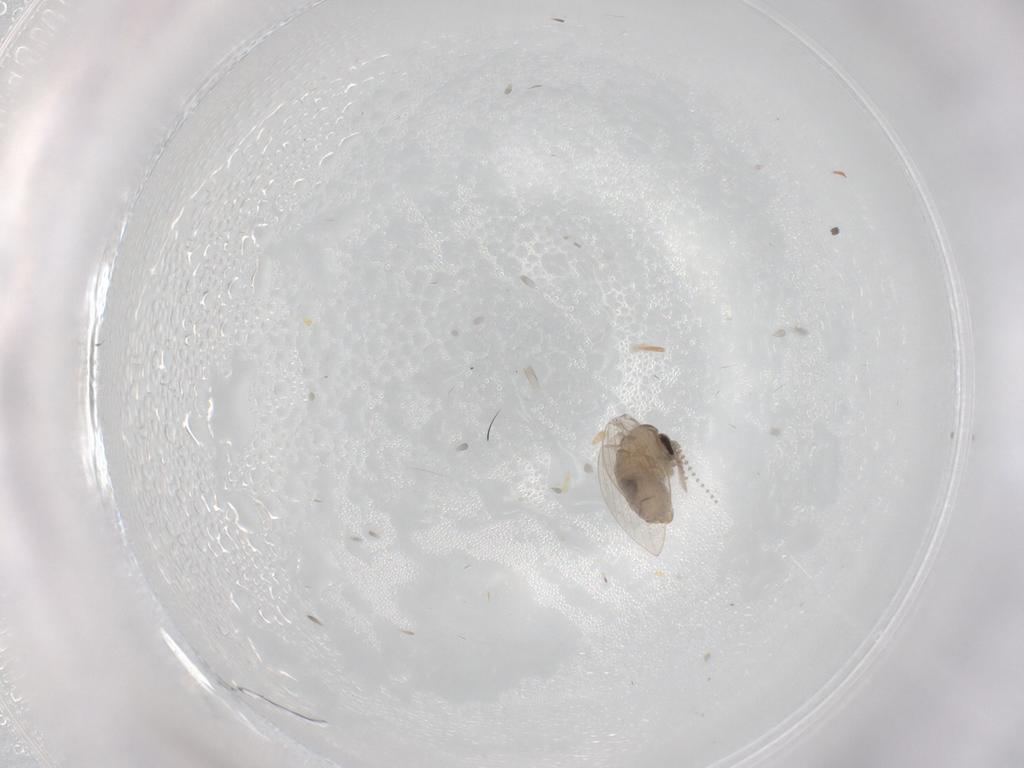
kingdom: Animalia
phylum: Arthropoda
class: Insecta
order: Diptera
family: Psychodidae
